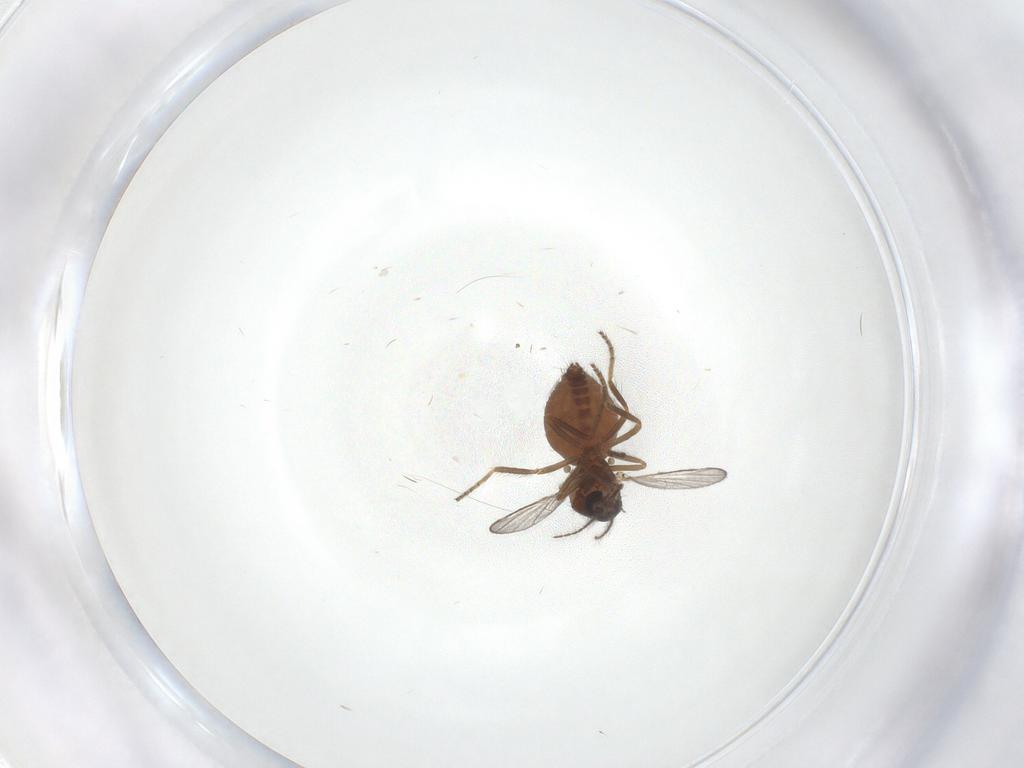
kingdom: Animalia
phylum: Arthropoda
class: Insecta
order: Diptera
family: Ceratopogonidae
